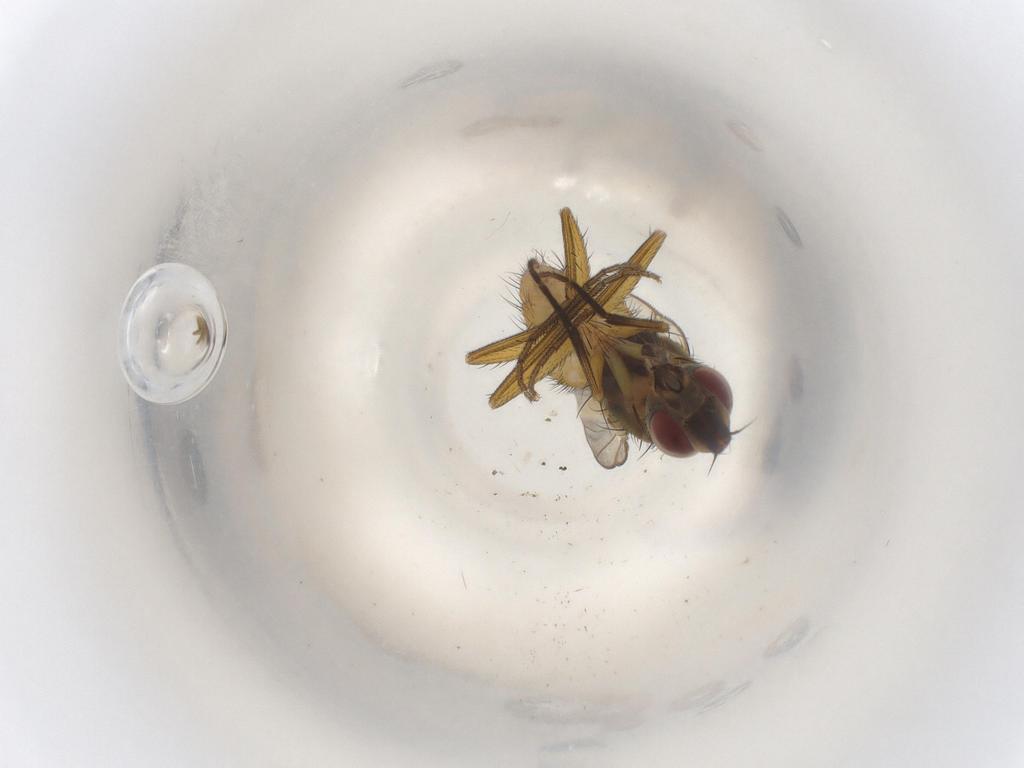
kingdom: Animalia
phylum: Arthropoda
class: Insecta
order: Diptera
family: Muscidae
